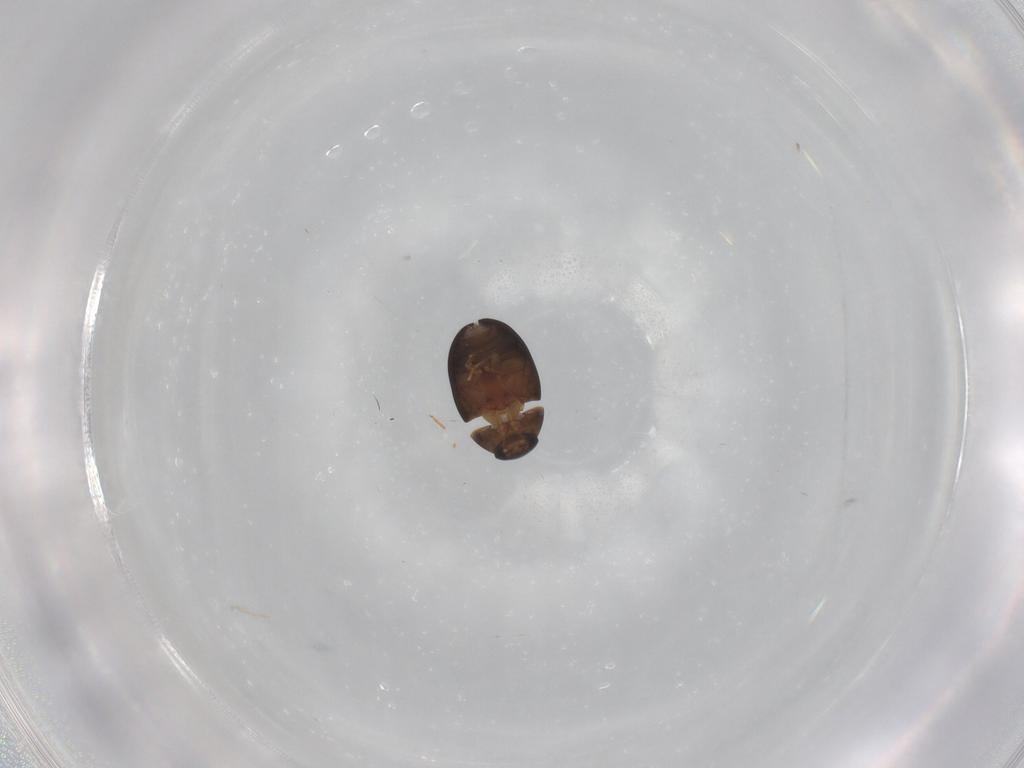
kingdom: Animalia
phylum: Arthropoda
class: Insecta
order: Coleoptera
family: Phalacridae
